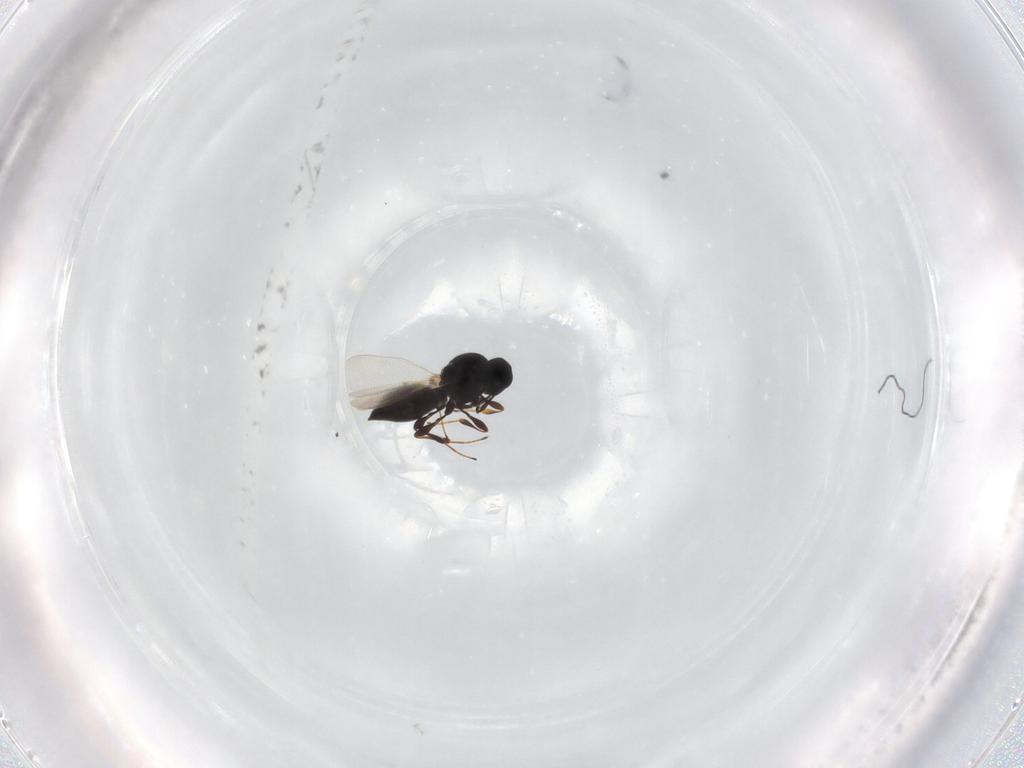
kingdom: Animalia
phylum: Arthropoda
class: Insecta
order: Hymenoptera
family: Platygastridae
